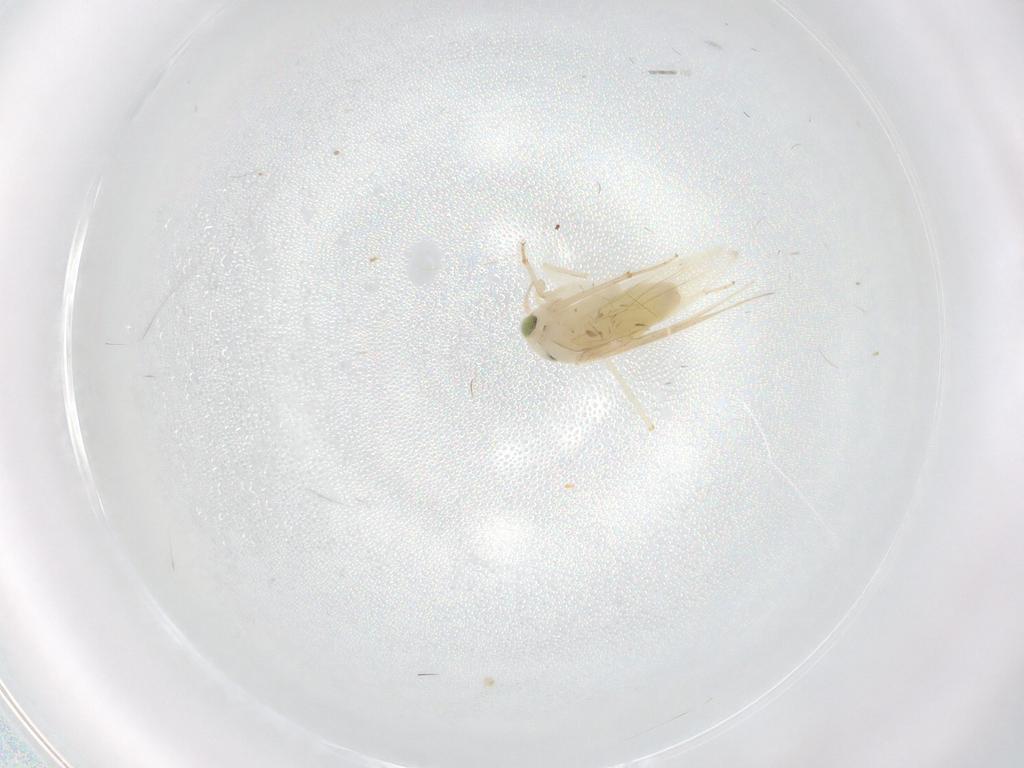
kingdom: Animalia
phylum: Arthropoda
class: Insecta
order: Psocodea
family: Lepidopsocidae
